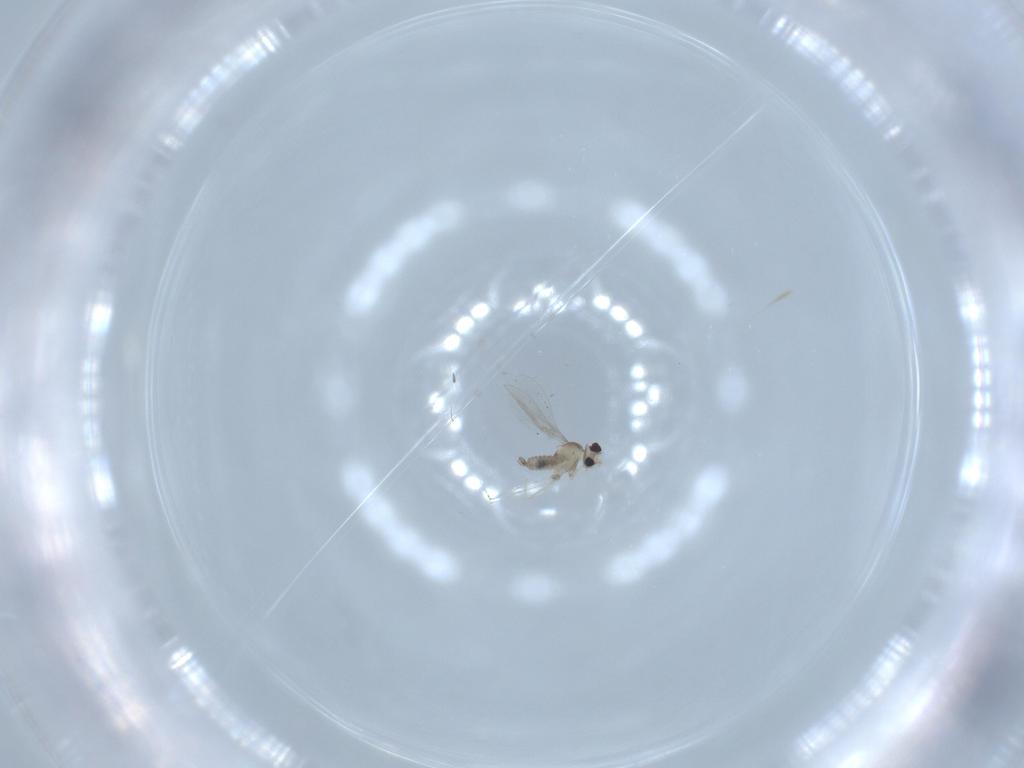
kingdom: Animalia
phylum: Arthropoda
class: Insecta
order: Diptera
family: Cecidomyiidae
